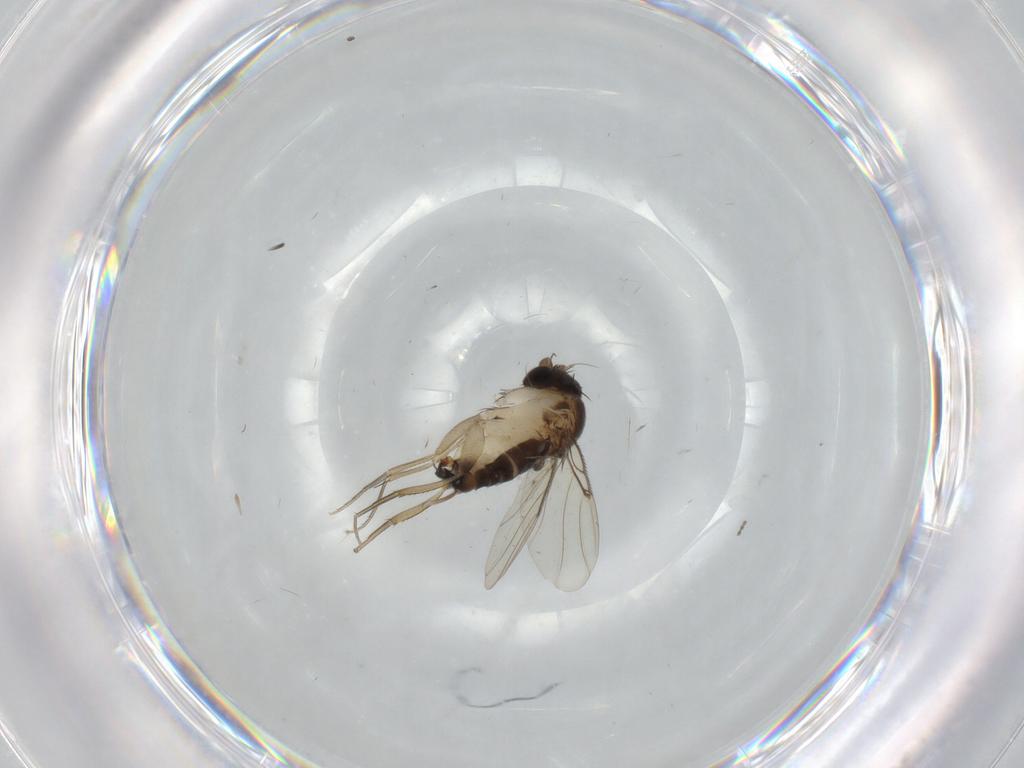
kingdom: Animalia
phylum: Arthropoda
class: Insecta
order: Diptera
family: Phoridae
